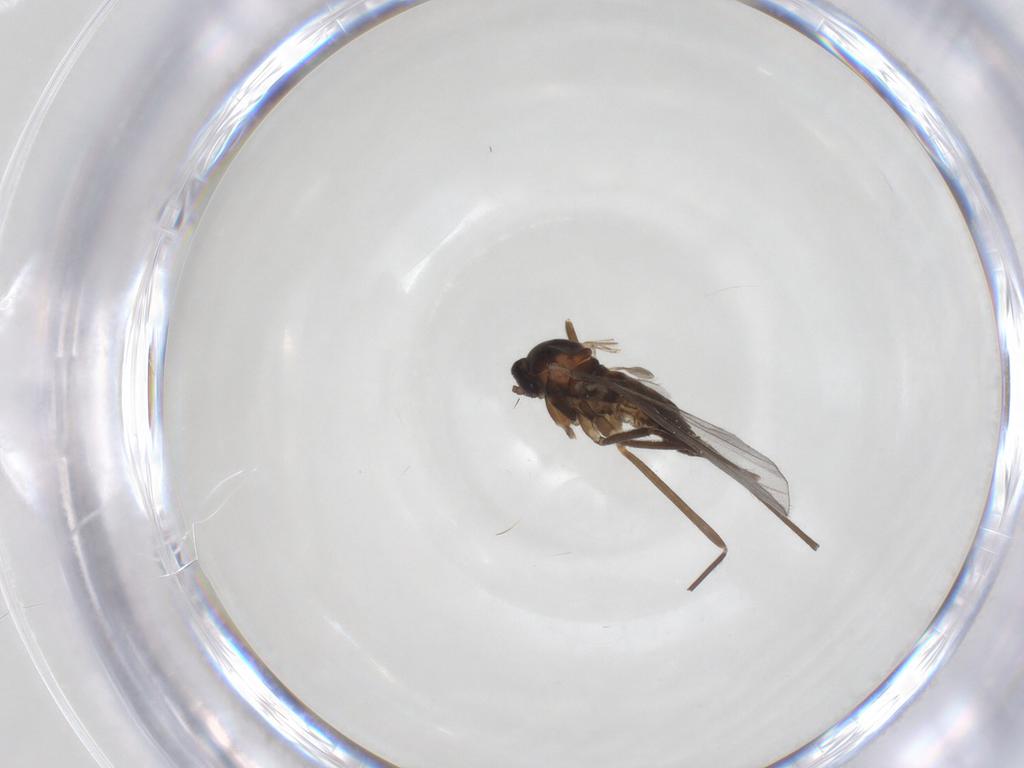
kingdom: Animalia
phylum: Arthropoda
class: Insecta
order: Diptera
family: Cecidomyiidae
